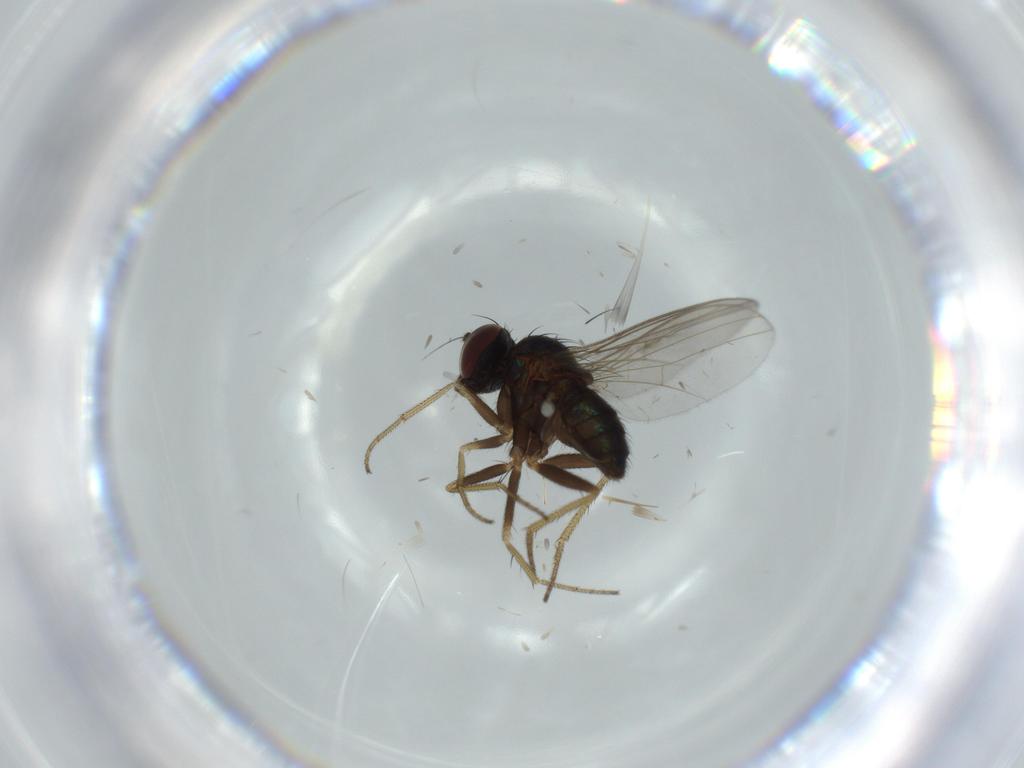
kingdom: Animalia
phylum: Arthropoda
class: Insecta
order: Diptera
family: Dolichopodidae
